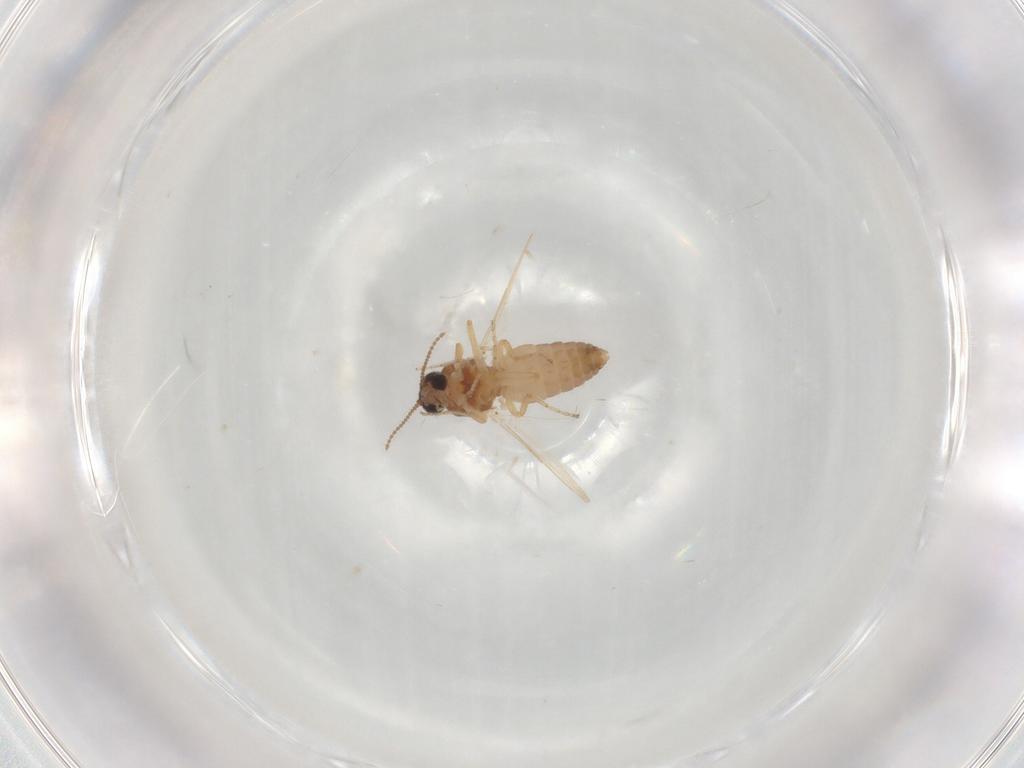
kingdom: Animalia
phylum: Arthropoda
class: Insecta
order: Diptera
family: Ceratopogonidae
